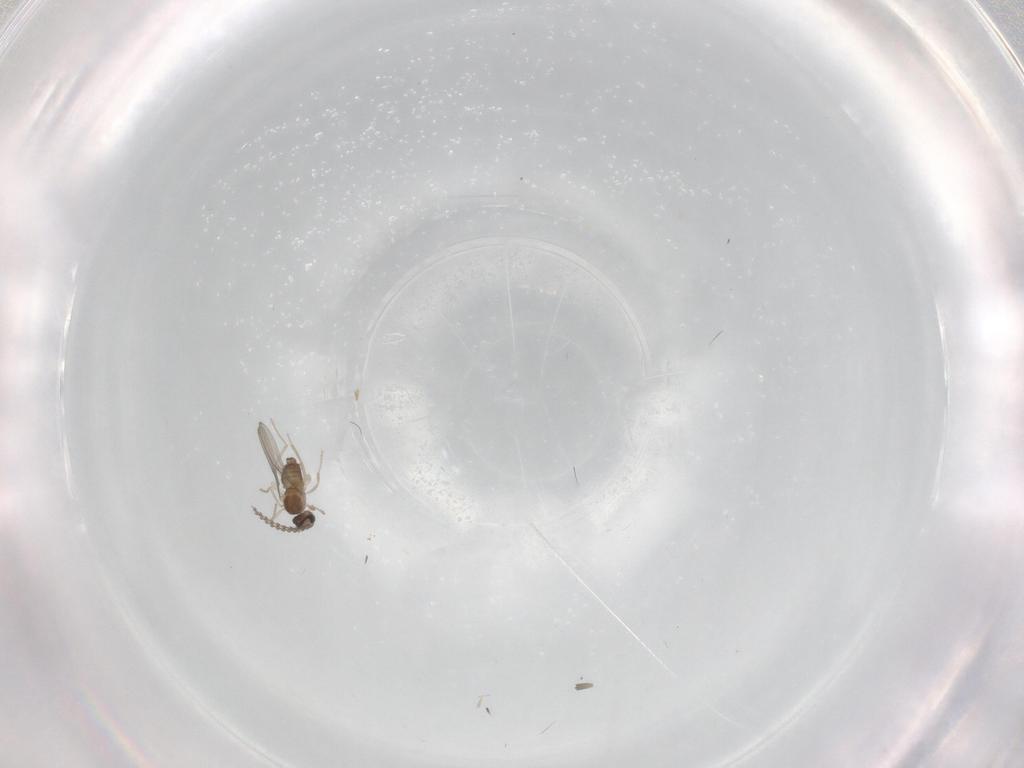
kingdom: Animalia
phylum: Arthropoda
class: Insecta
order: Diptera
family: Cecidomyiidae
